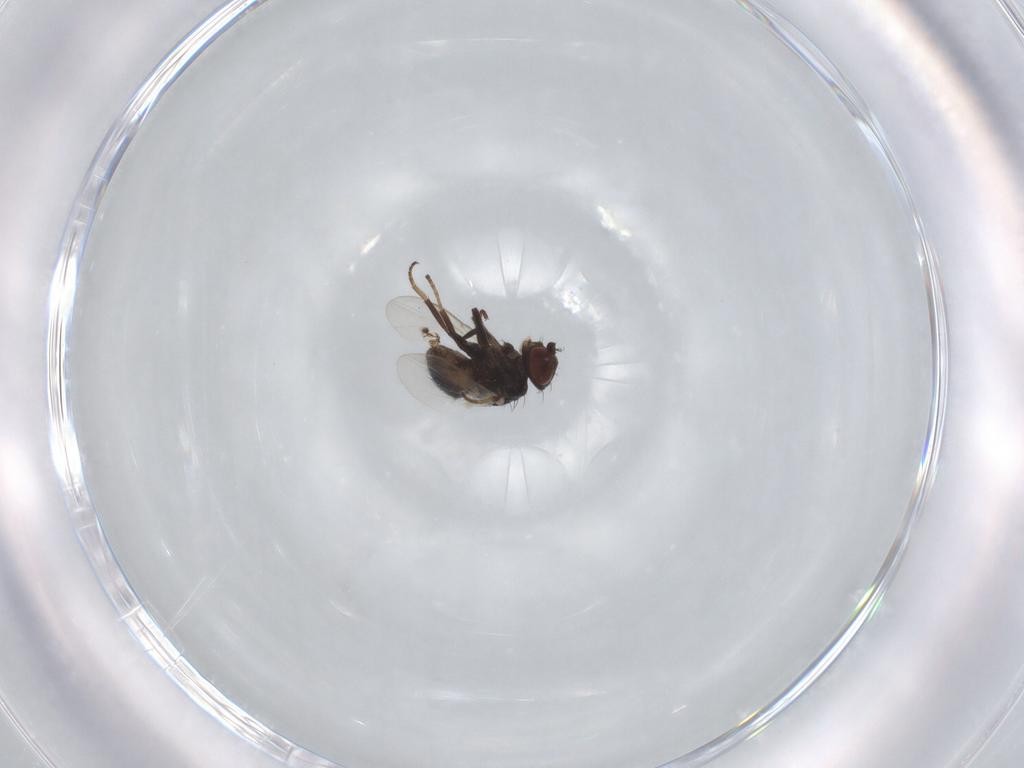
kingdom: Animalia
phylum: Arthropoda
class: Insecta
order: Diptera
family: Agromyzidae
